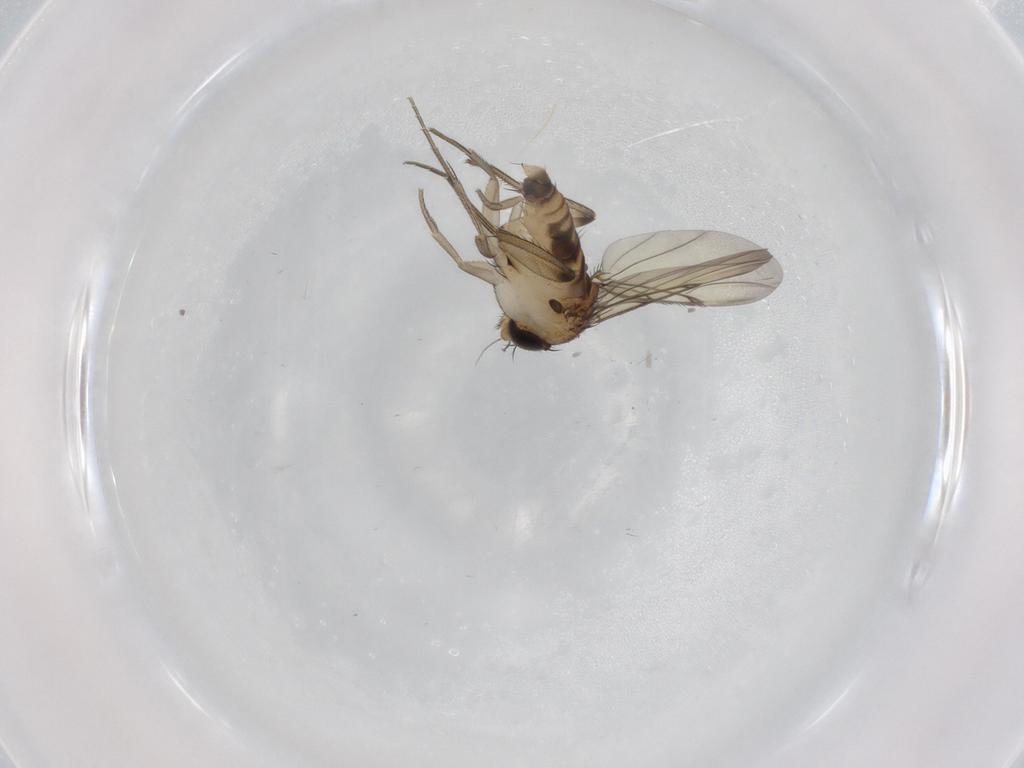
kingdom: Animalia
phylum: Arthropoda
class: Insecta
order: Diptera
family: Phoridae
